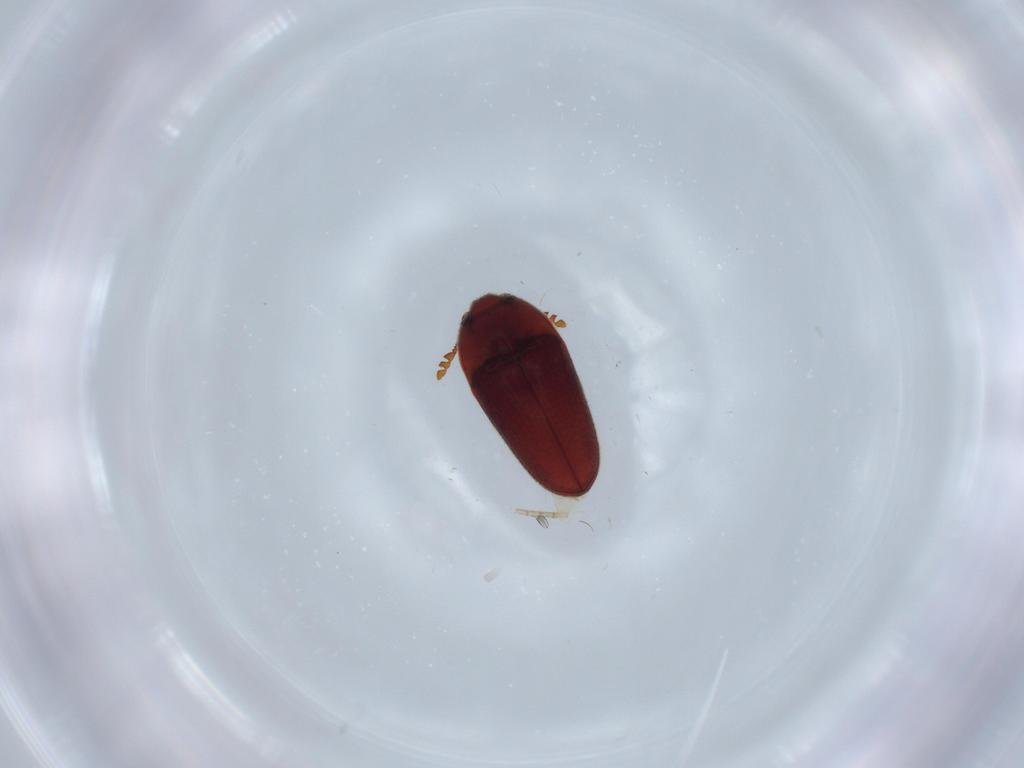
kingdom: Animalia
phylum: Arthropoda
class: Insecta
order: Coleoptera
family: Throscidae
